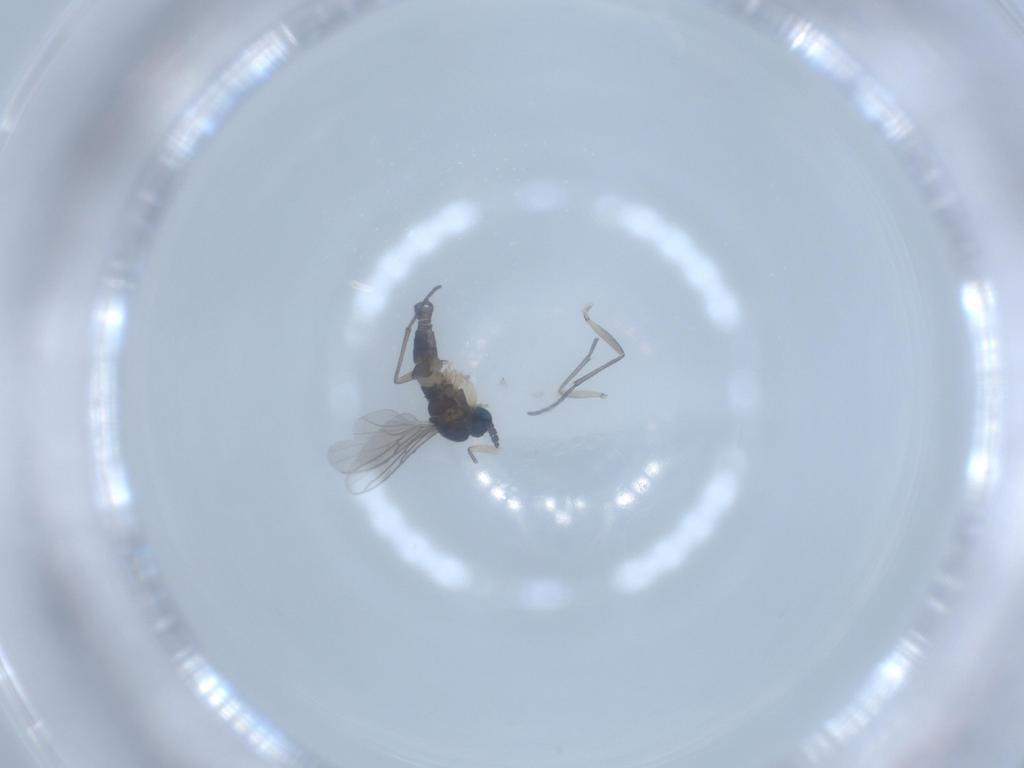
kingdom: Animalia
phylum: Arthropoda
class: Insecta
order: Diptera
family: Sciaridae
